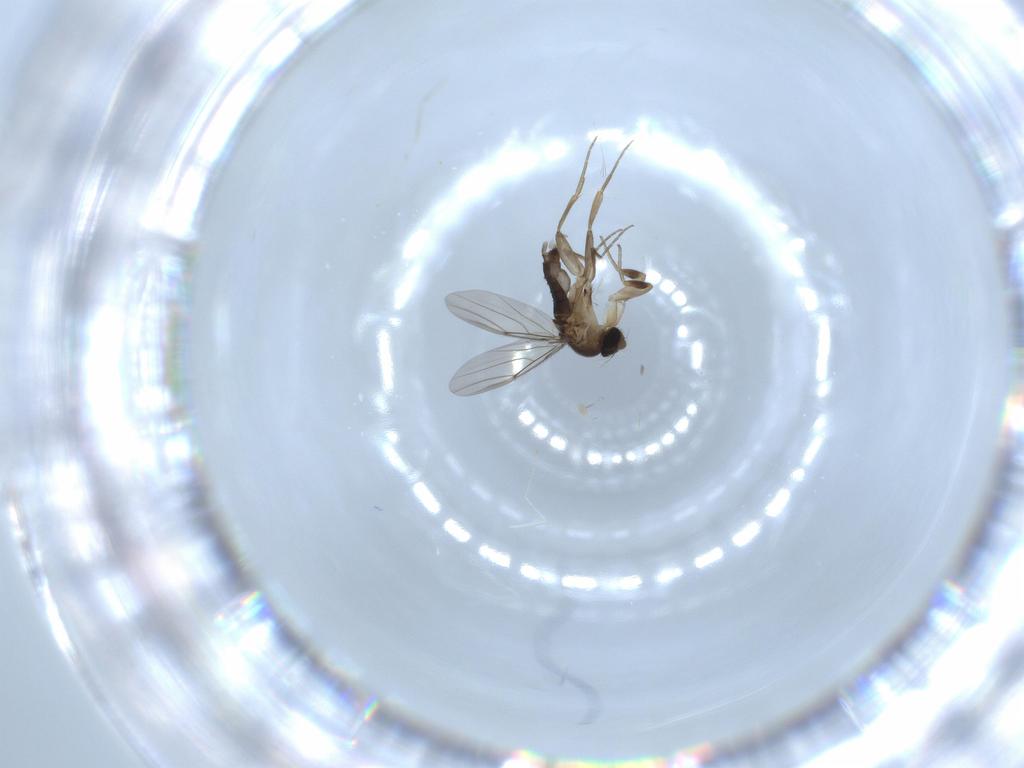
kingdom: Animalia
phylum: Arthropoda
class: Insecta
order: Diptera
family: Phoridae
